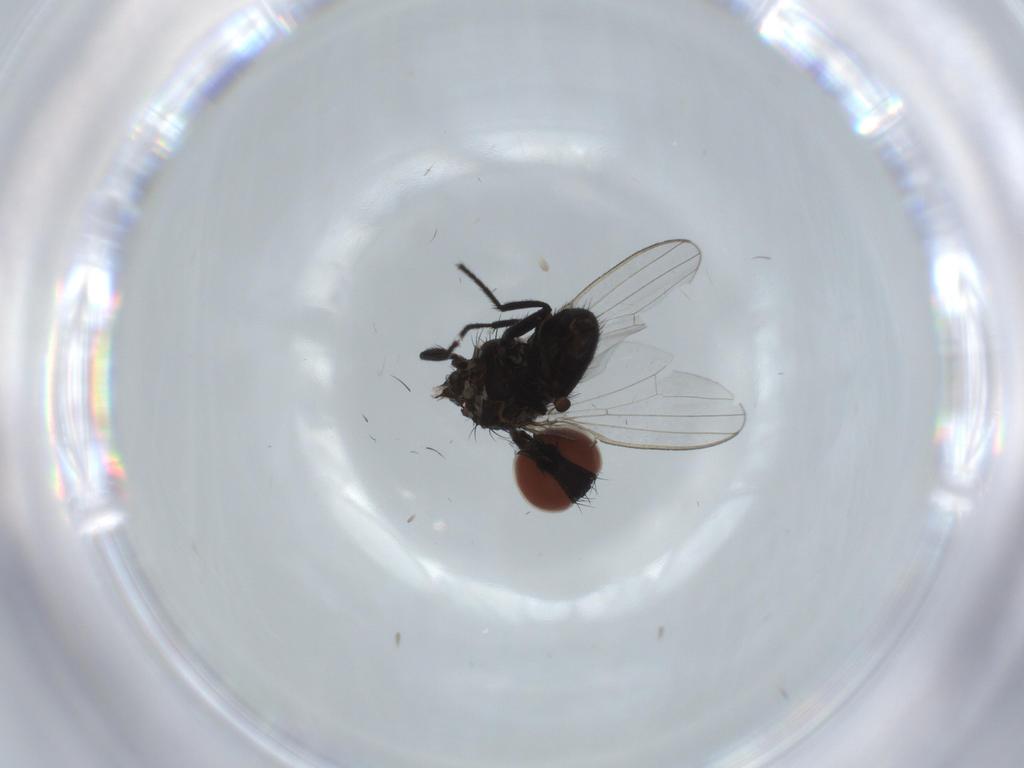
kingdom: Animalia
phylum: Arthropoda
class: Insecta
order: Diptera
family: Milichiidae
